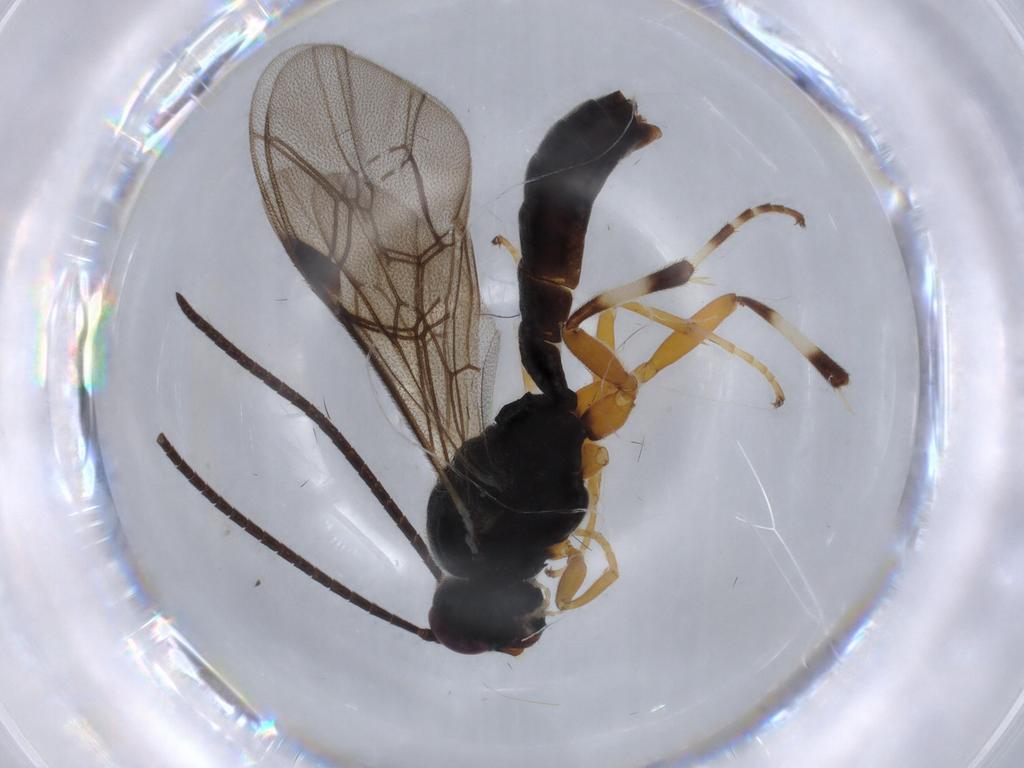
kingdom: Animalia
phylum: Arthropoda
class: Insecta
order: Hymenoptera
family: Ichneumonidae
